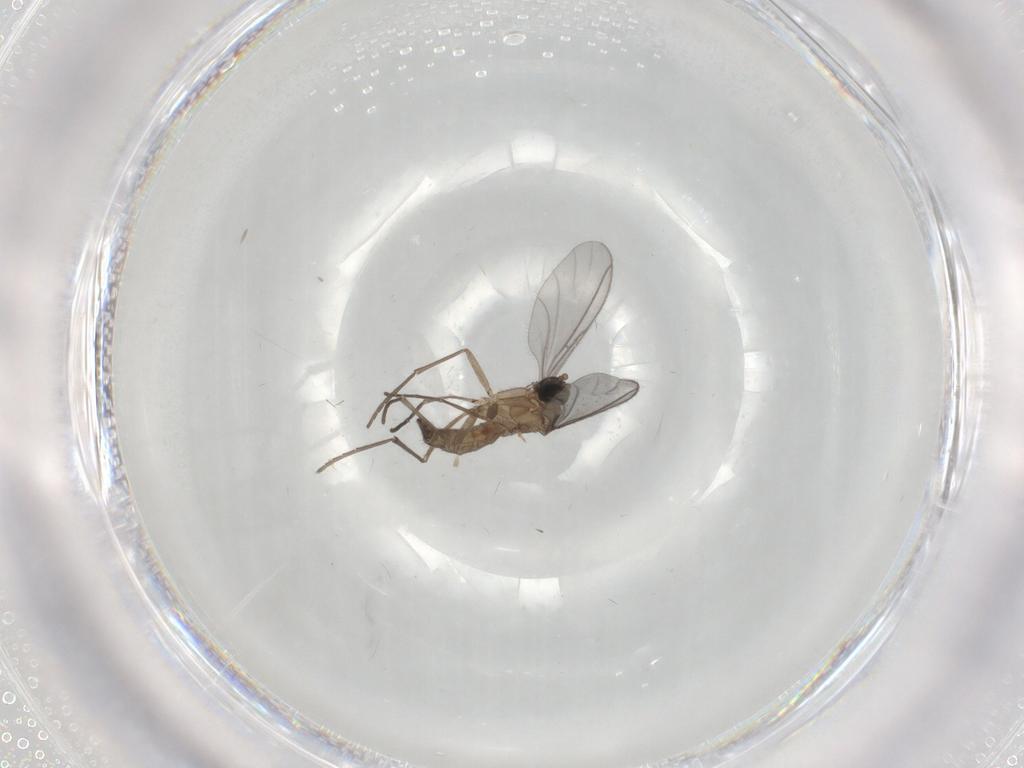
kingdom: Animalia
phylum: Arthropoda
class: Insecta
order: Diptera
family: Sciaridae
